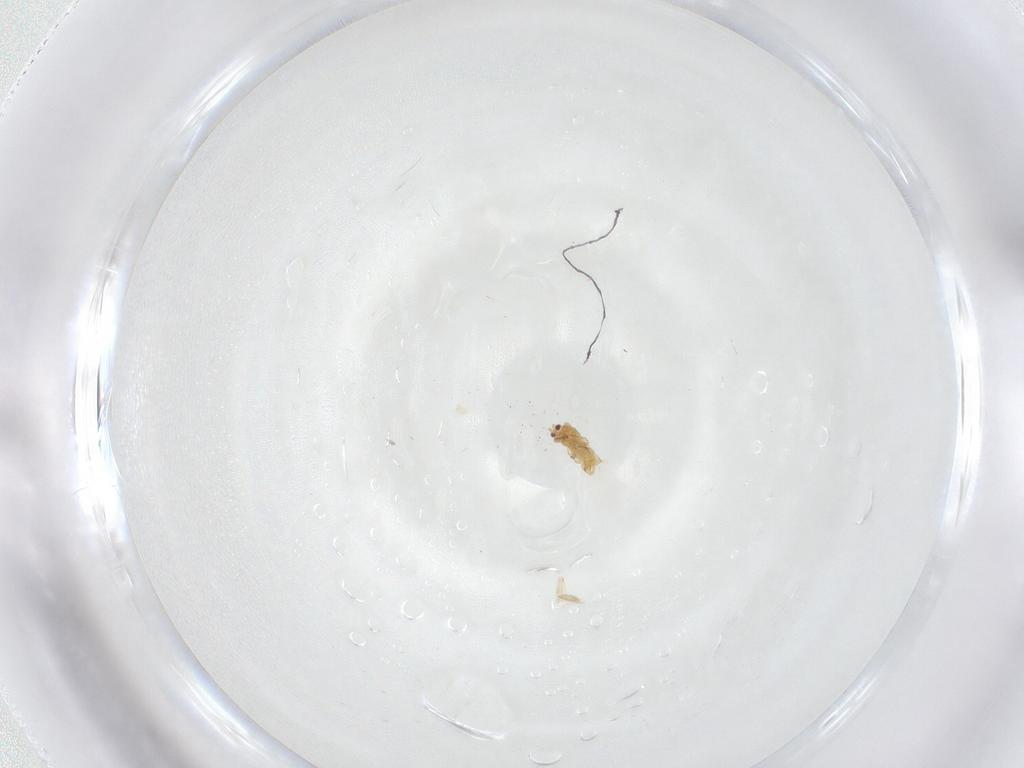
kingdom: Animalia
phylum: Arthropoda
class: Insecta
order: Thysanoptera
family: Thripidae
